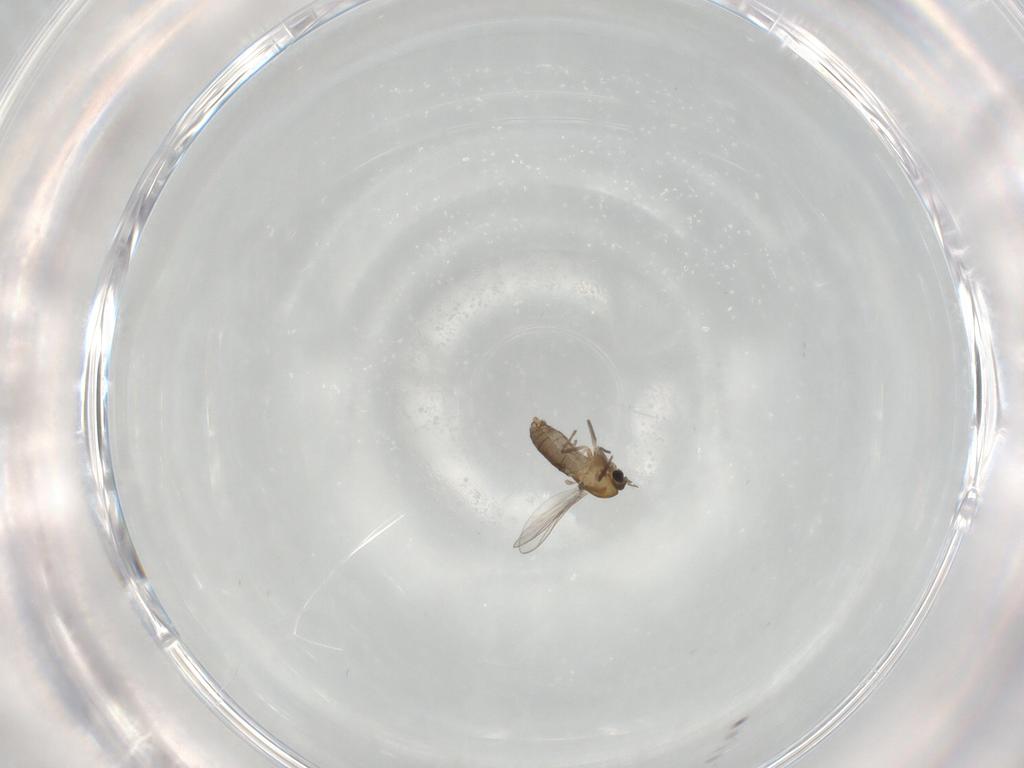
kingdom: Animalia
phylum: Arthropoda
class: Insecta
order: Diptera
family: Chironomidae
